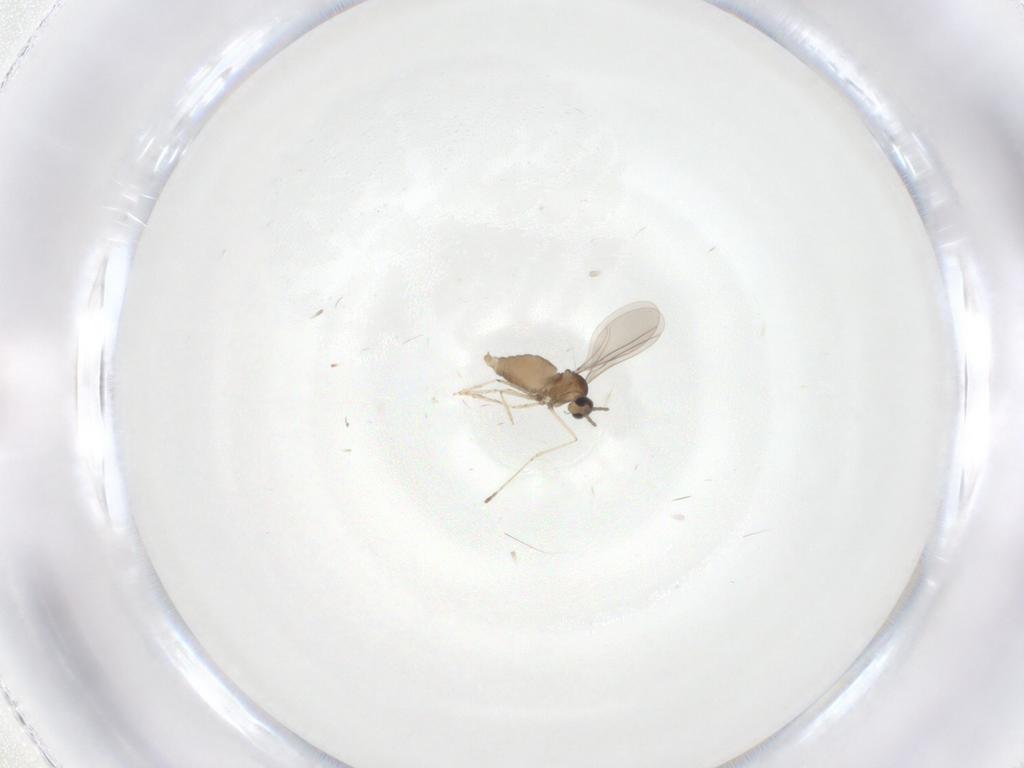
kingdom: Animalia
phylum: Arthropoda
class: Insecta
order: Diptera
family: Cecidomyiidae
